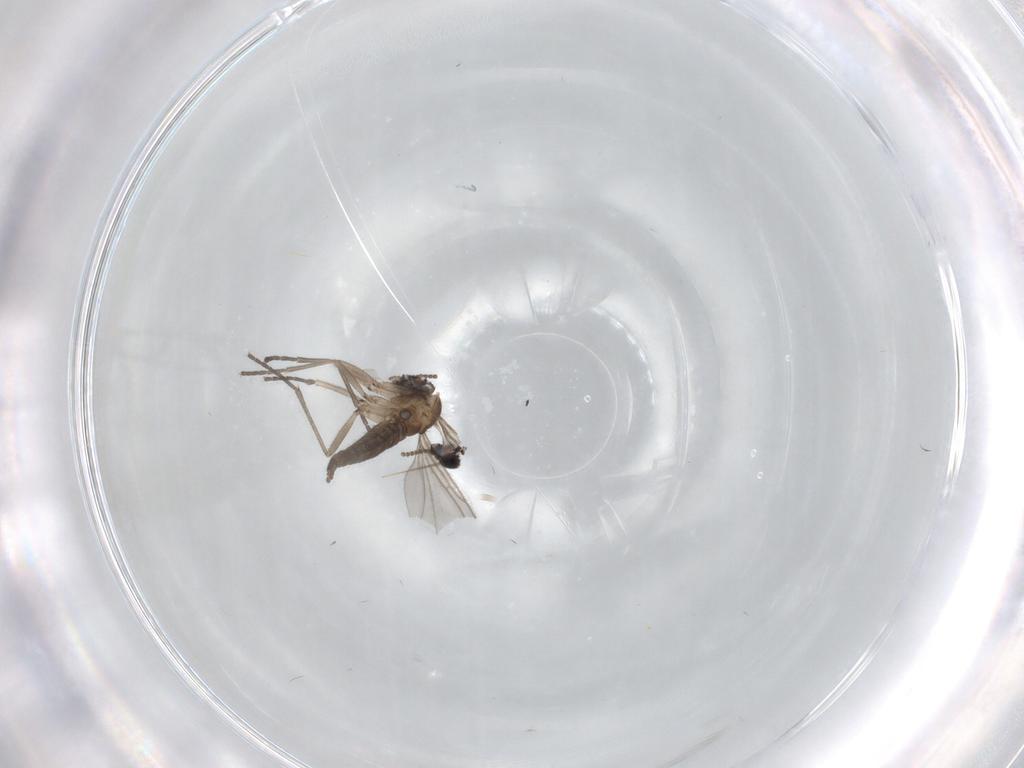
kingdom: Animalia
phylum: Arthropoda
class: Insecta
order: Diptera
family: Sciaridae
